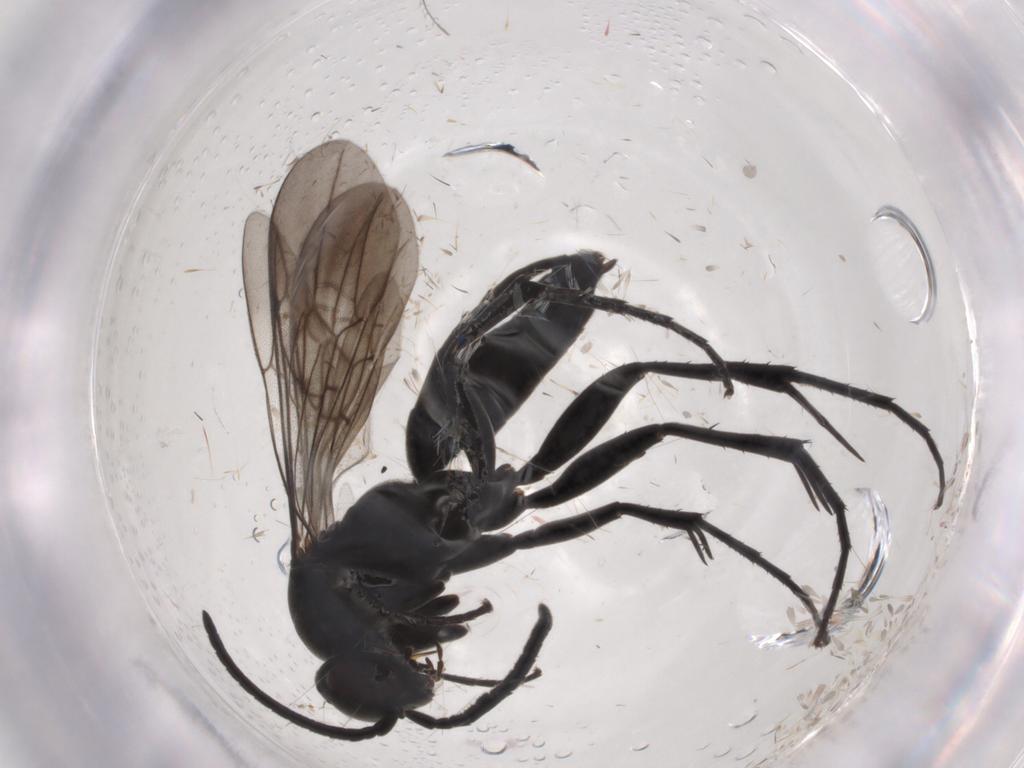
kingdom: Animalia
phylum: Arthropoda
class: Insecta
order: Hymenoptera
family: Pompilidae
